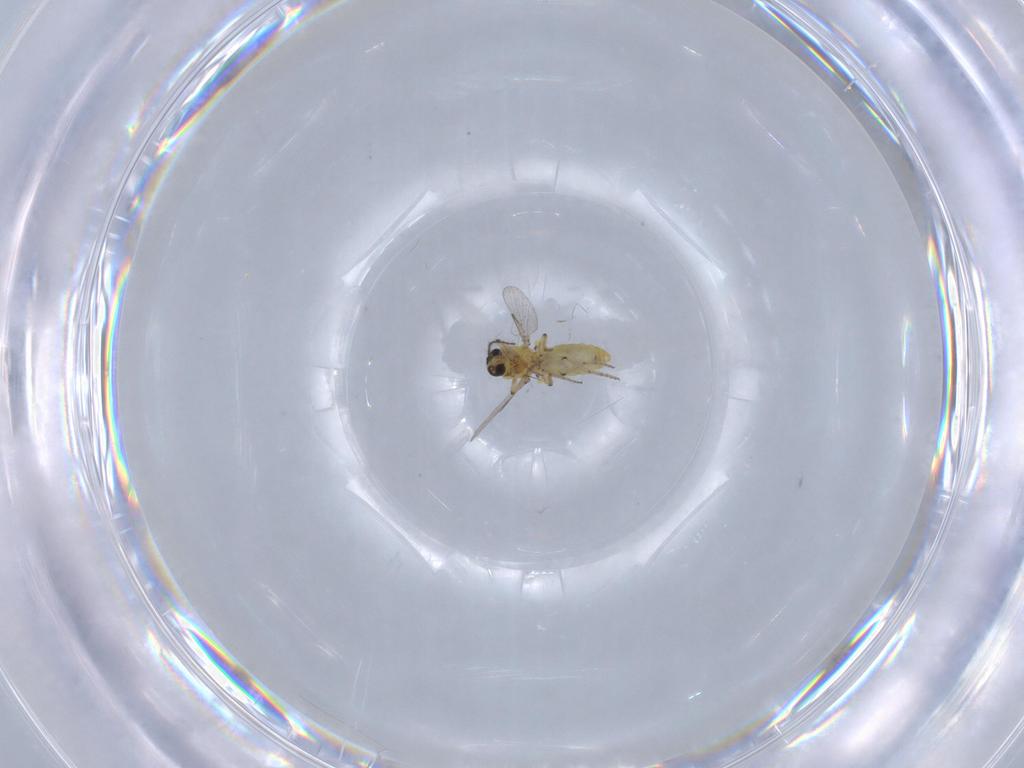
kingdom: Animalia
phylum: Arthropoda
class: Insecta
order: Diptera
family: Ceratopogonidae
